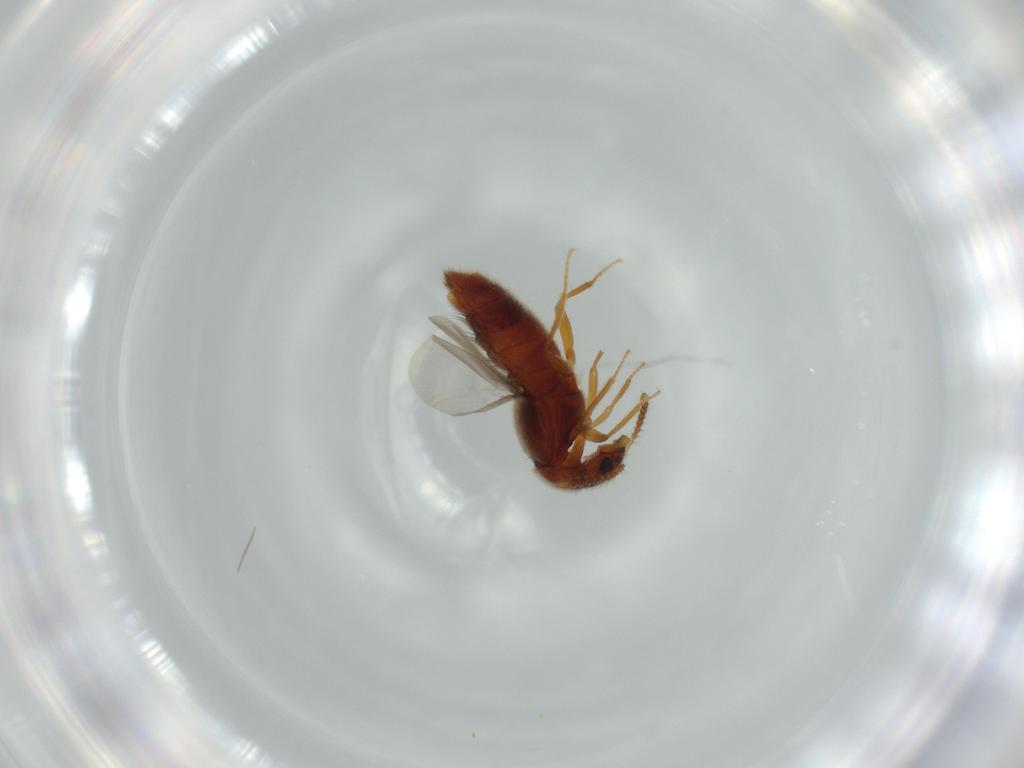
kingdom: Animalia
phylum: Arthropoda
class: Insecta
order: Coleoptera
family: Staphylinidae
